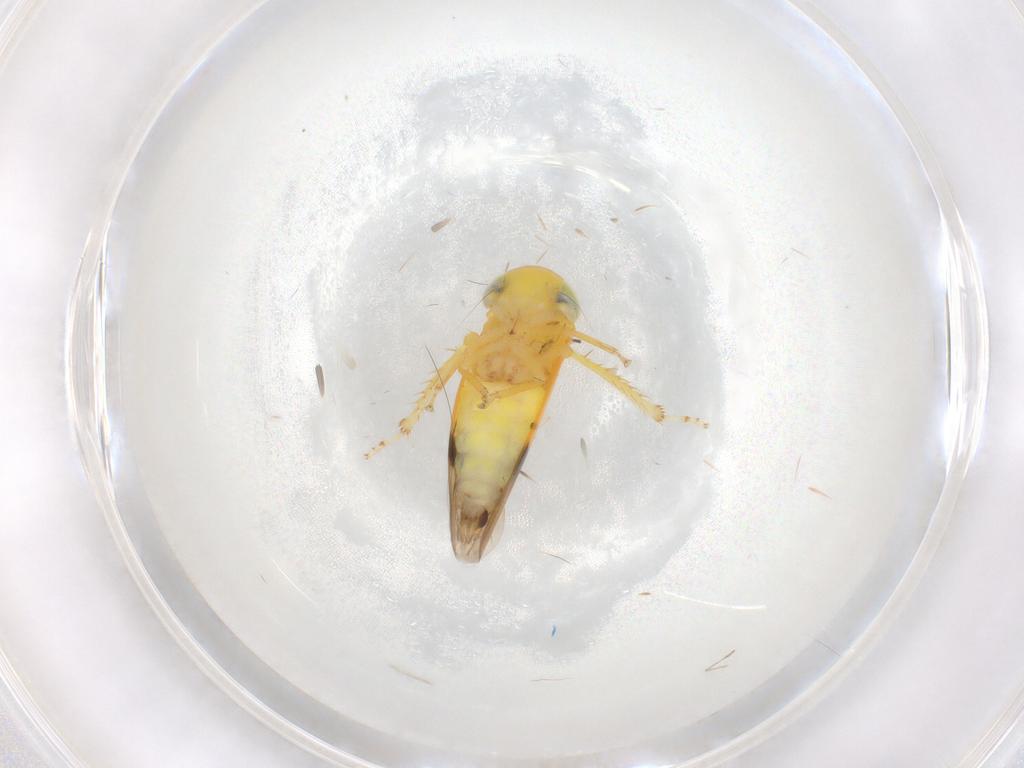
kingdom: Animalia
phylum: Arthropoda
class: Insecta
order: Hemiptera
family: Cicadellidae
